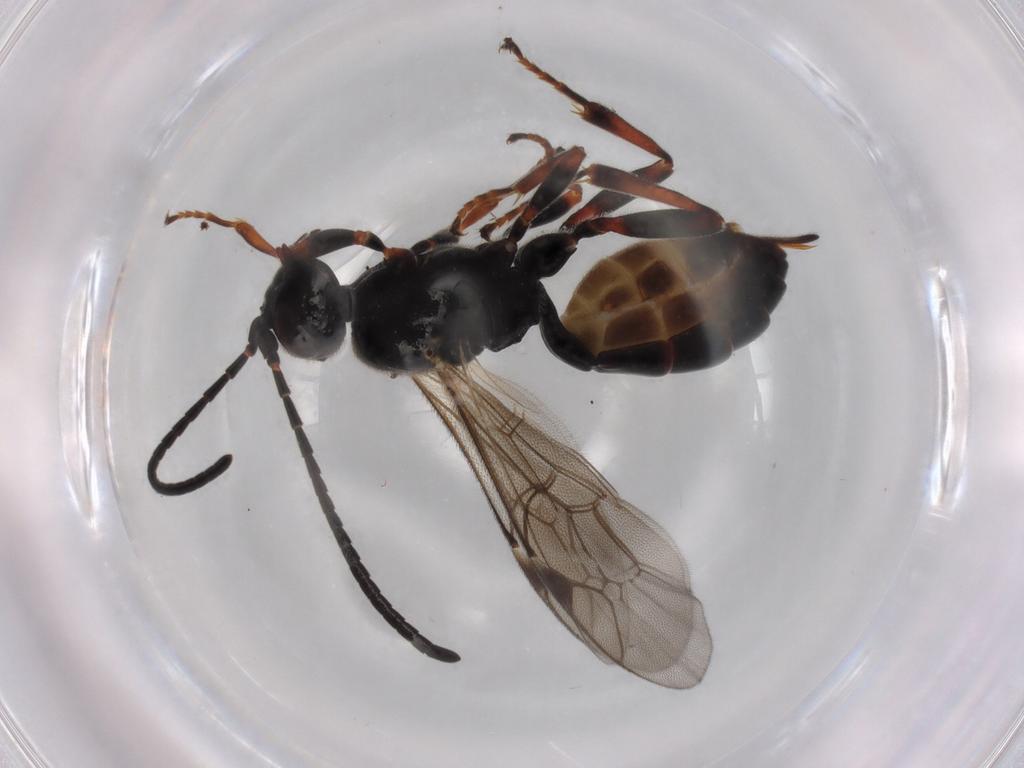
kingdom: Animalia
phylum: Arthropoda
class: Insecta
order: Hymenoptera
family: Ichneumonidae
